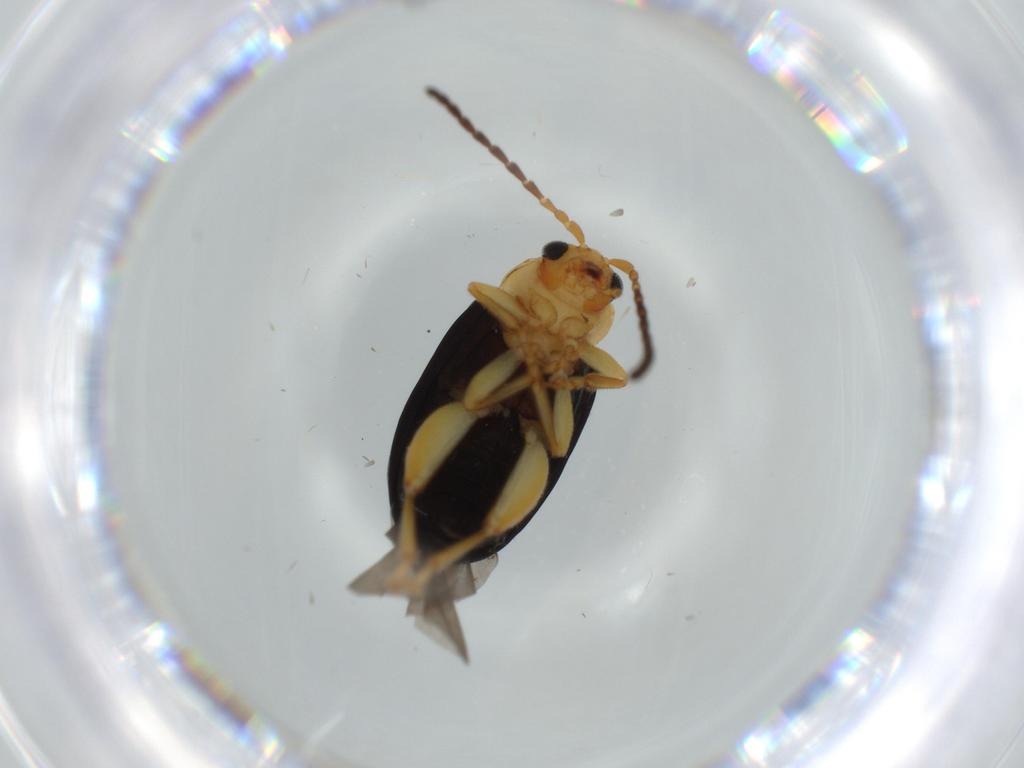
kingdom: Animalia
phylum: Arthropoda
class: Insecta
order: Coleoptera
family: Chrysomelidae
